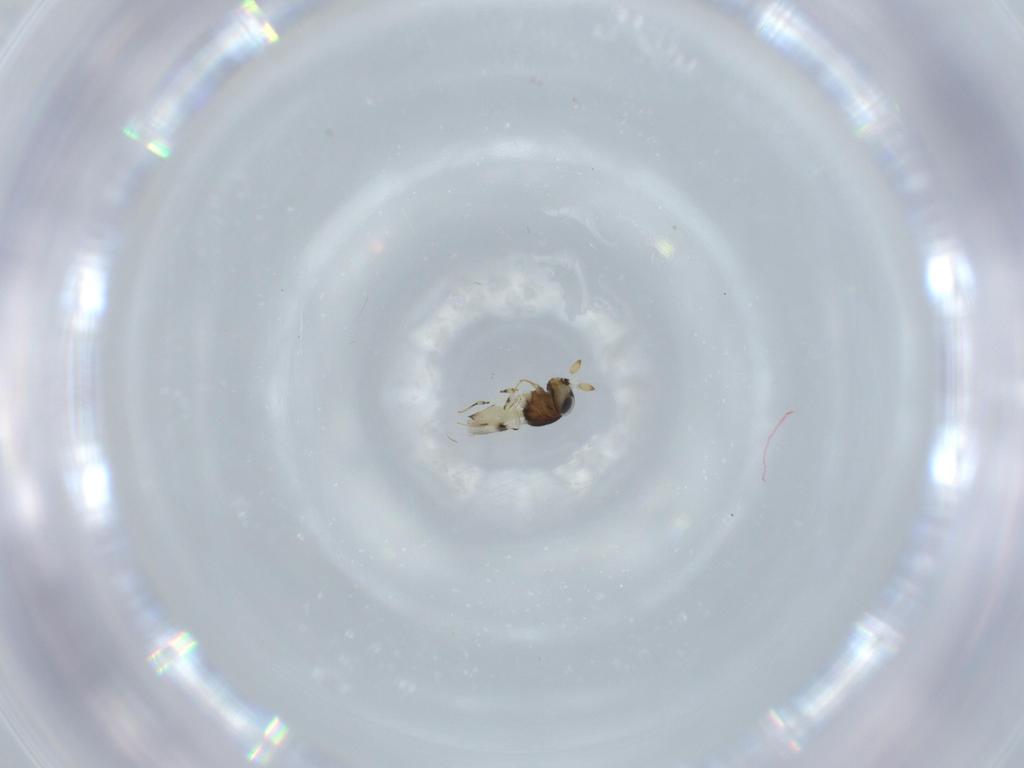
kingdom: Animalia
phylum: Arthropoda
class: Insecta
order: Hymenoptera
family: Scelionidae
